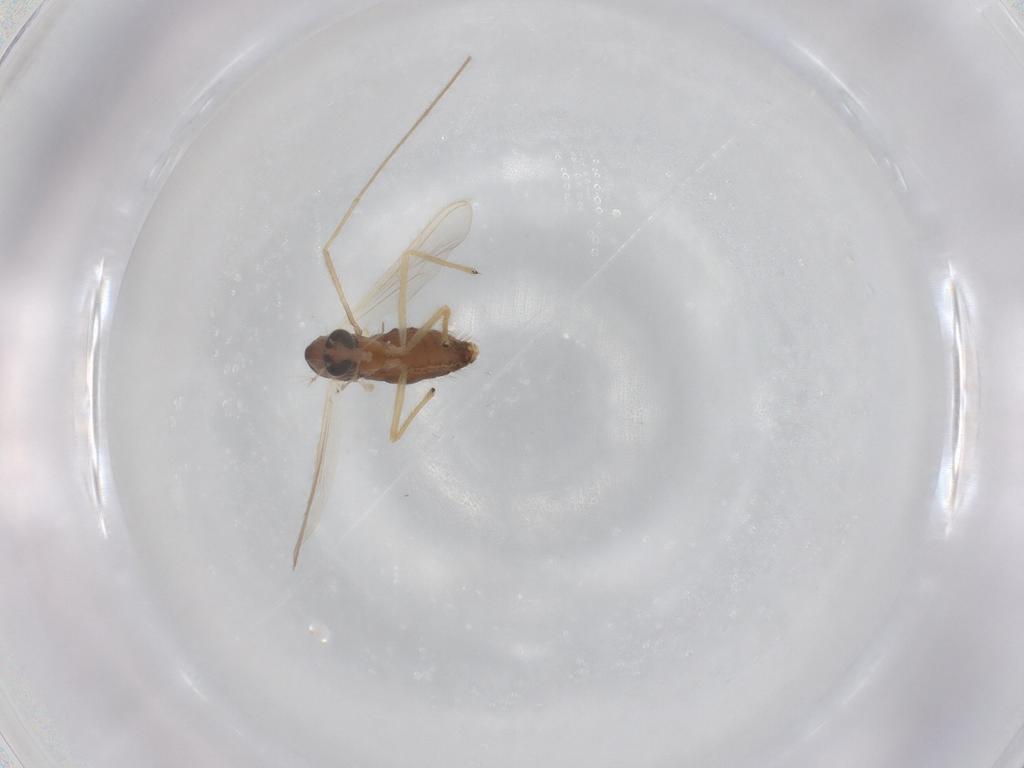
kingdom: Animalia
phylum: Arthropoda
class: Insecta
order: Diptera
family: Chironomidae
